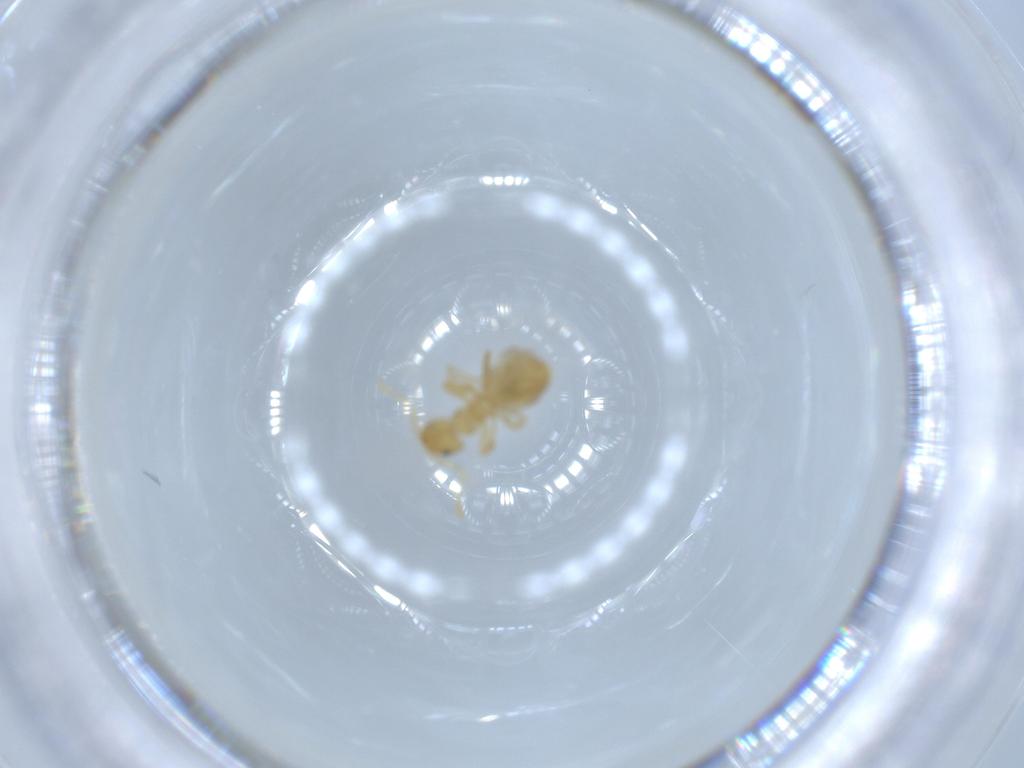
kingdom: Animalia
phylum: Arthropoda
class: Insecta
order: Hymenoptera
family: Formicidae
